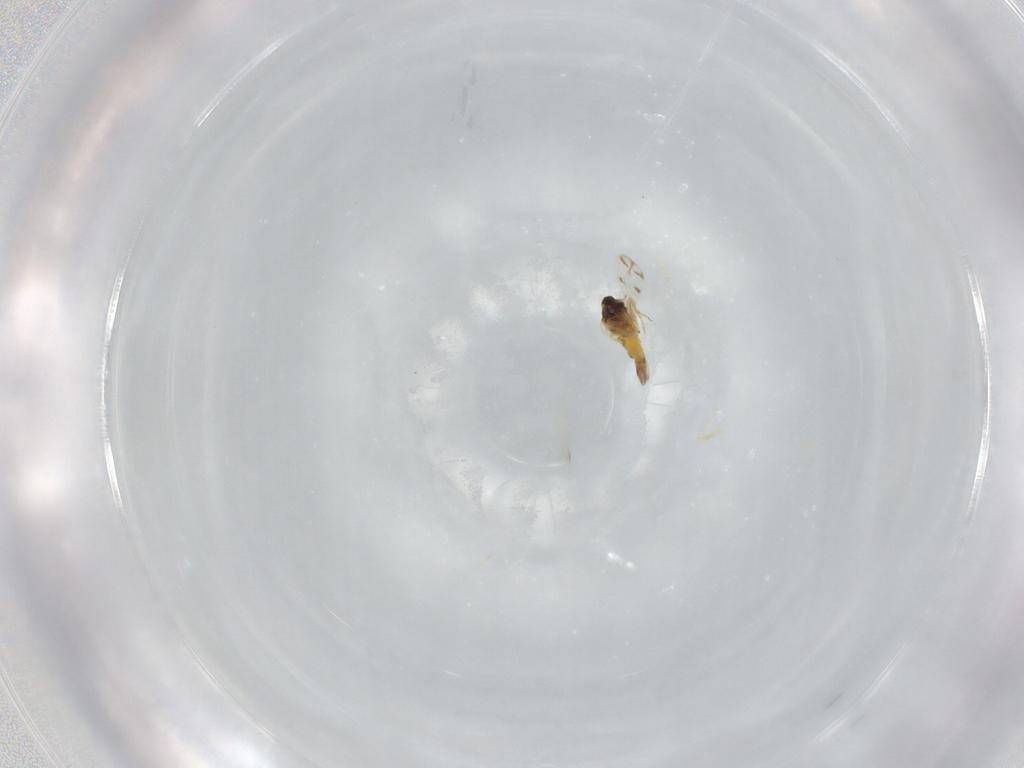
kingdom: Animalia
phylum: Arthropoda
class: Insecta
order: Hemiptera
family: Aleyrodidae
